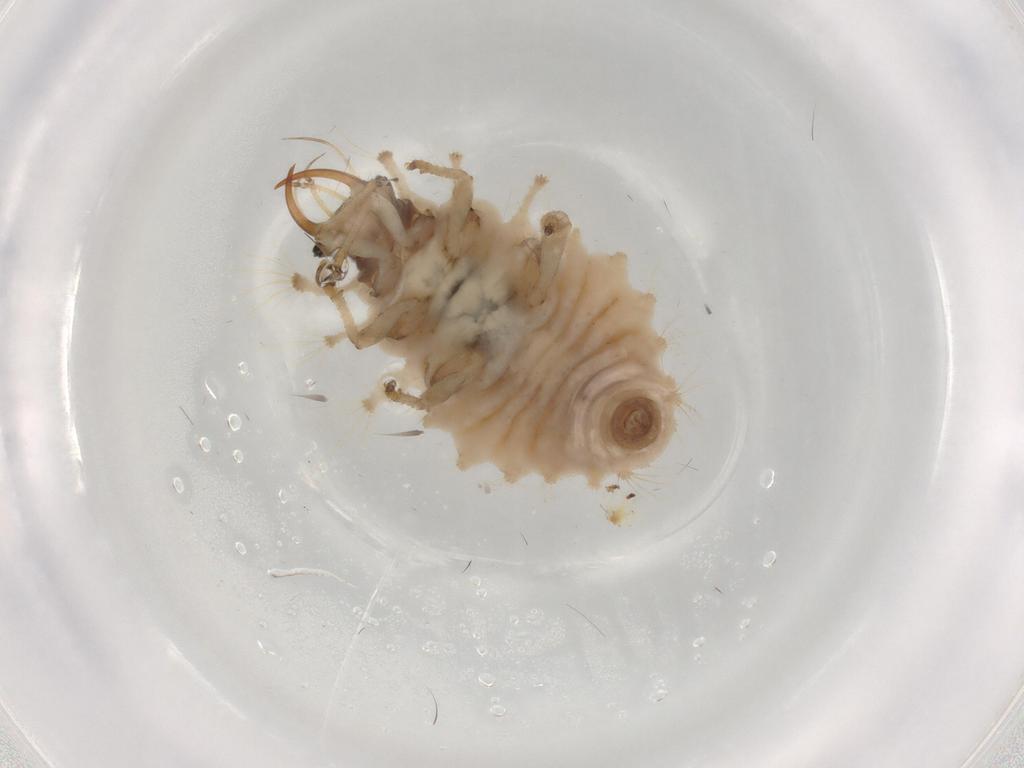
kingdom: Animalia
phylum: Arthropoda
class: Insecta
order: Neuroptera
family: Chrysopidae
